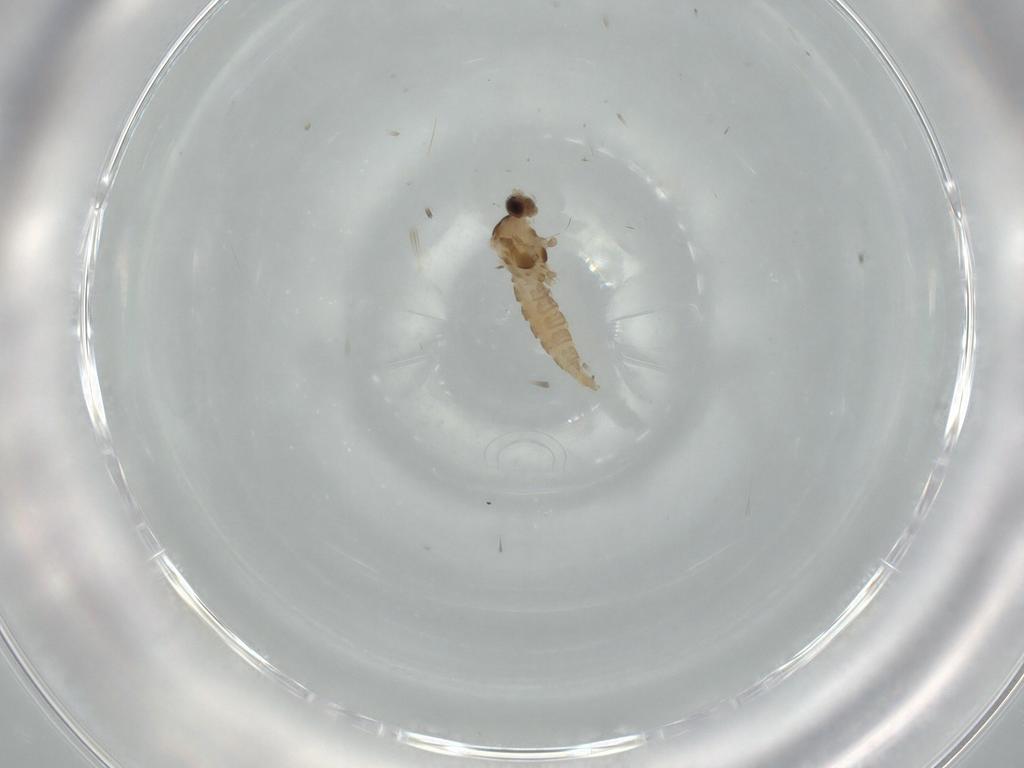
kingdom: Animalia
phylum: Arthropoda
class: Insecta
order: Diptera
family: Cecidomyiidae
